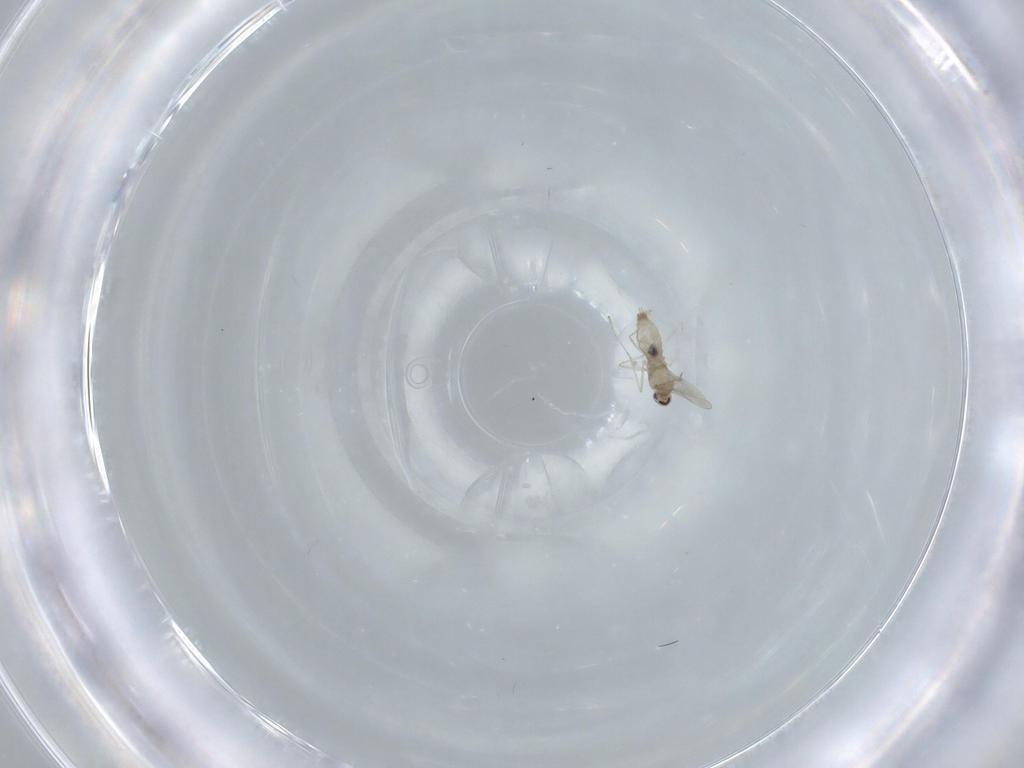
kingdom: Animalia
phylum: Arthropoda
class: Insecta
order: Diptera
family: Cecidomyiidae
